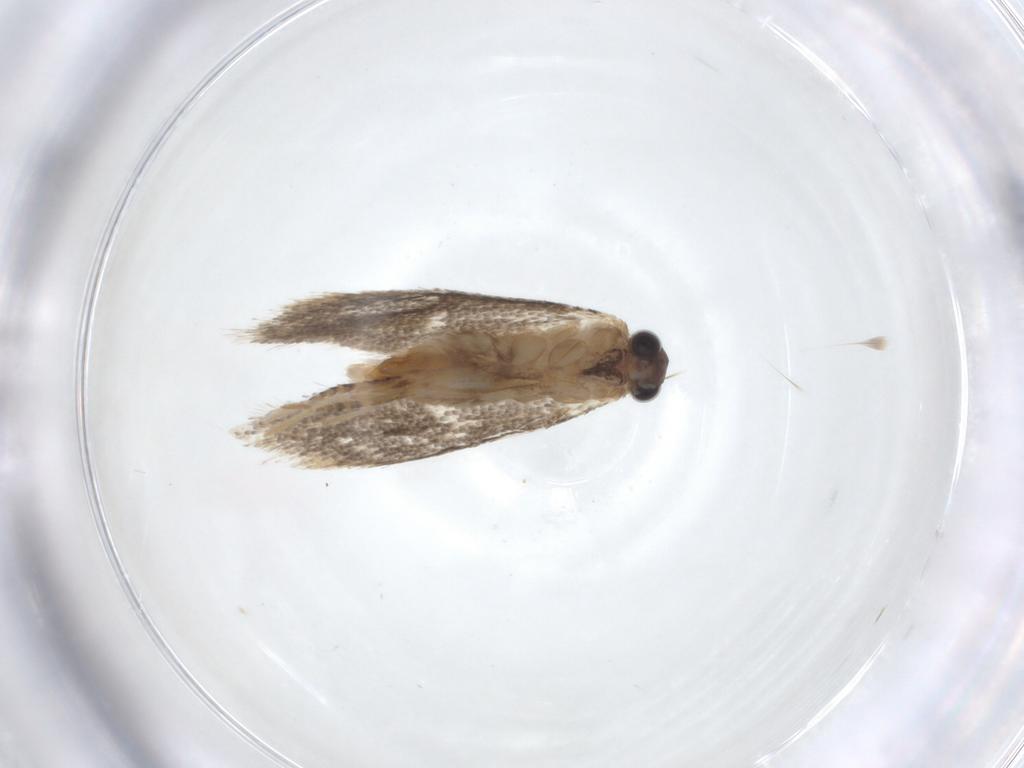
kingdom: Animalia
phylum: Arthropoda
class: Insecta
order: Lepidoptera
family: Tineidae
